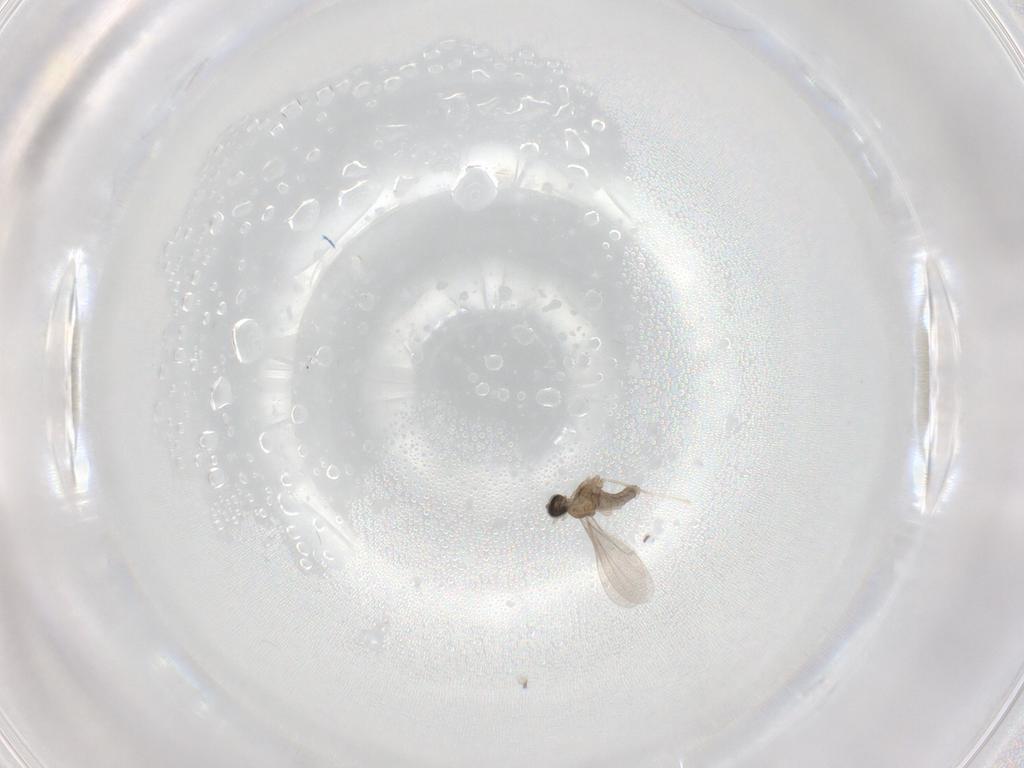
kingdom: Animalia
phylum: Arthropoda
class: Insecta
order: Diptera
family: Cecidomyiidae
